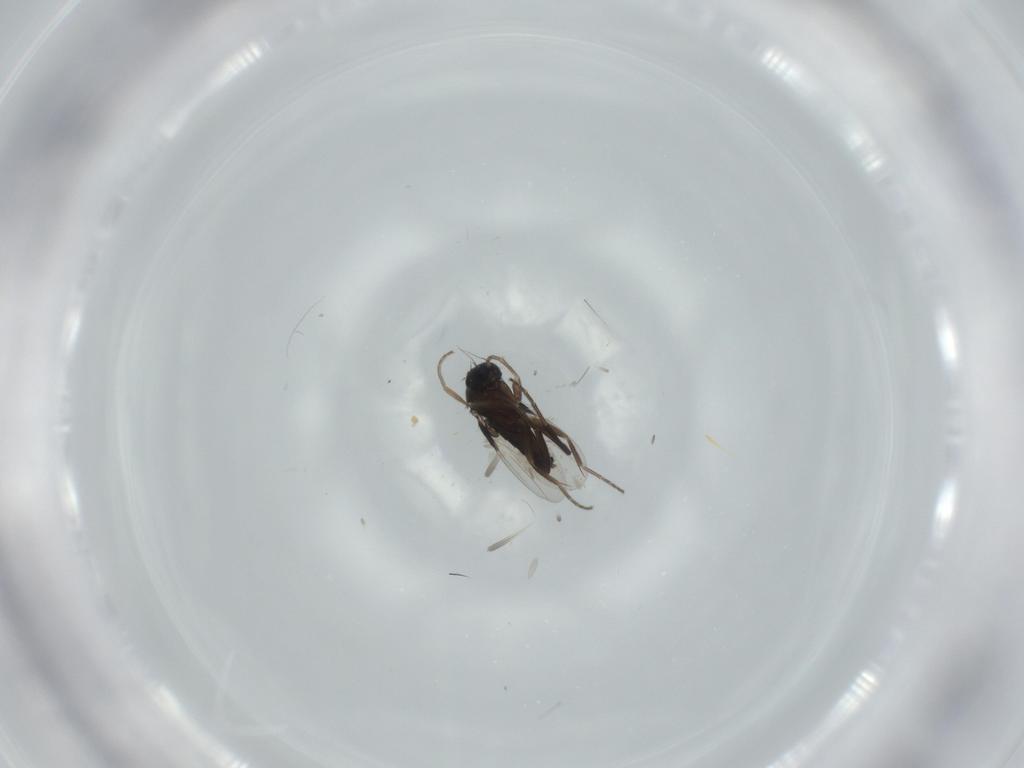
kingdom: Animalia
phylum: Arthropoda
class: Insecta
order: Diptera
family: Phoridae
